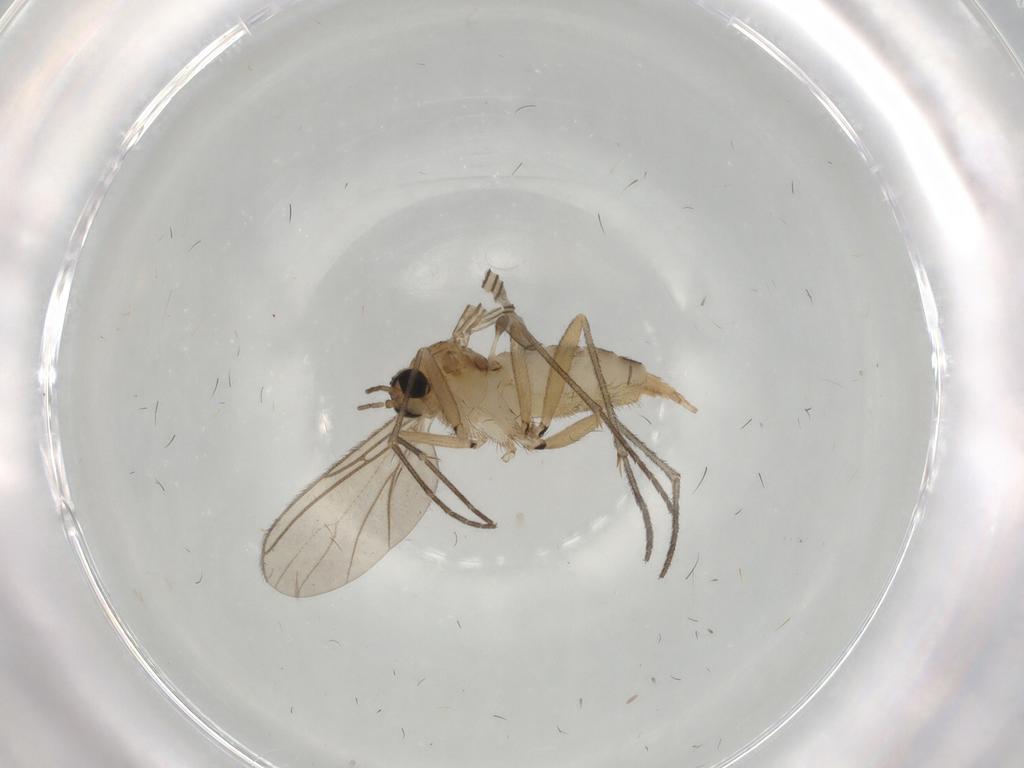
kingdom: Animalia
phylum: Arthropoda
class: Insecta
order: Diptera
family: Sciaridae
